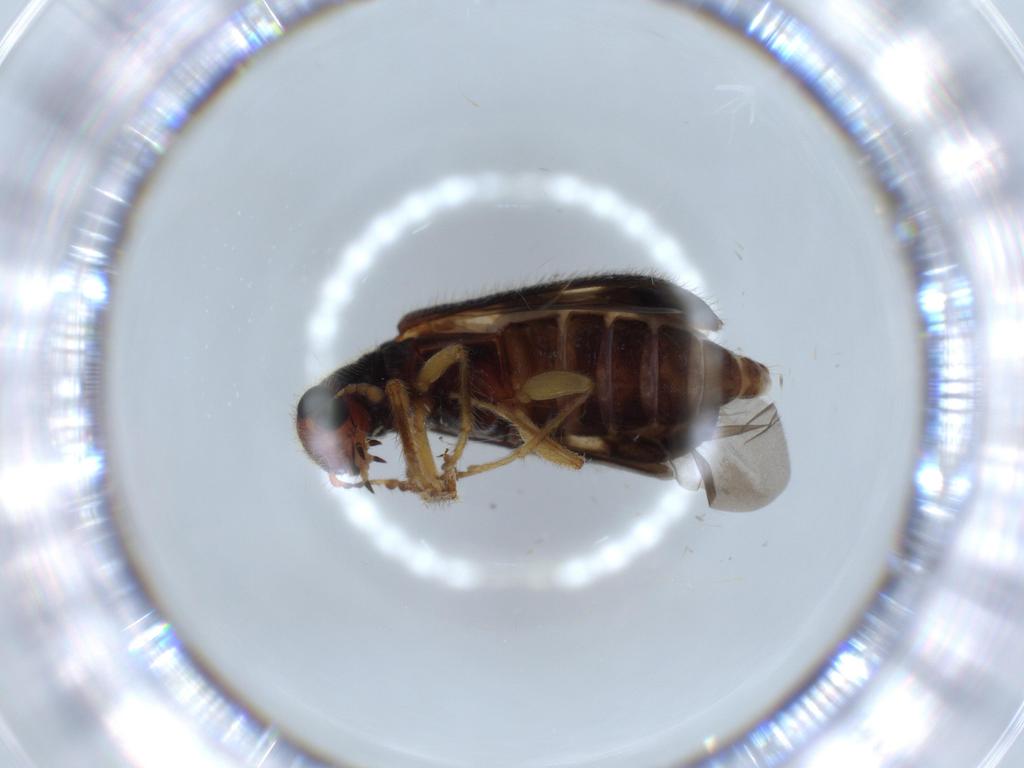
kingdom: Animalia
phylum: Arthropoda
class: Insecta
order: Coleoptera
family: Cleridae
